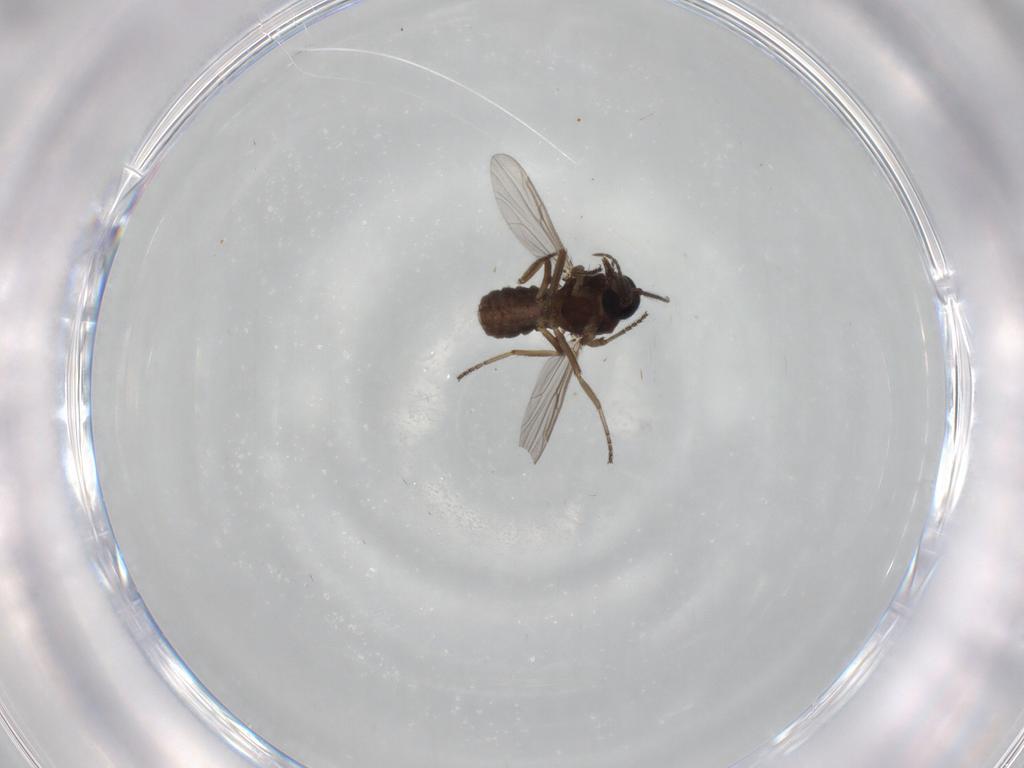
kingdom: Animalia
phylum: Arthropoda
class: Insecta
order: Diptera
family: Ceratopogonidae
